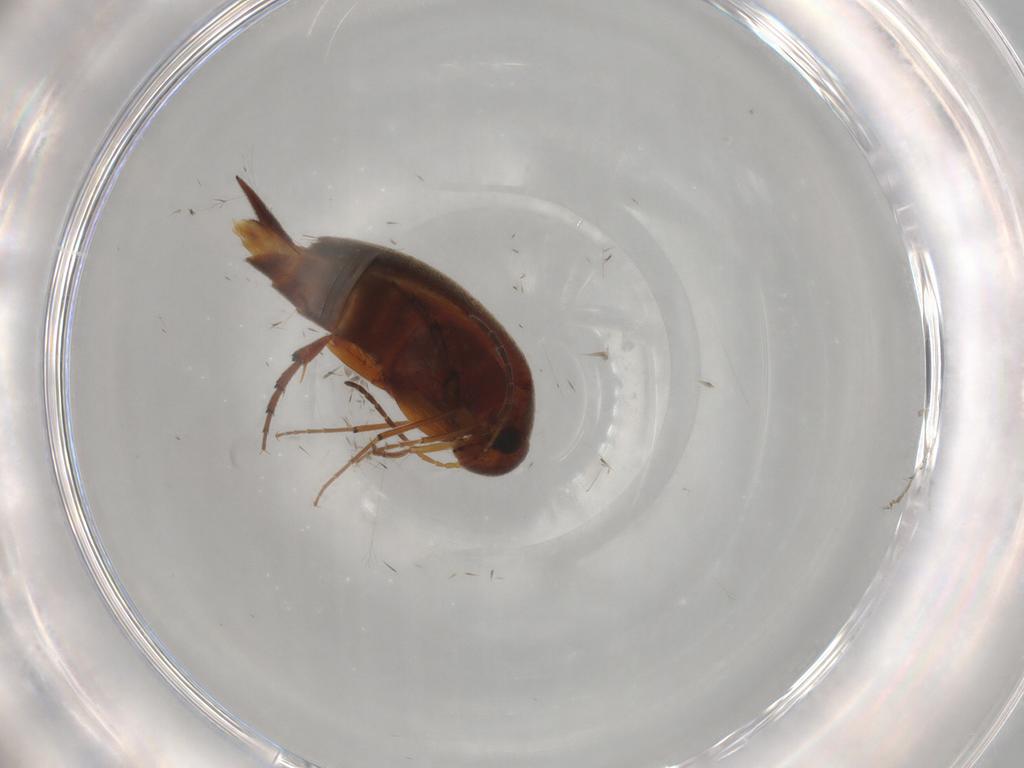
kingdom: Animalia
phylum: Arthropoda
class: Insecta
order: Coleoptera
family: Mordellidae
